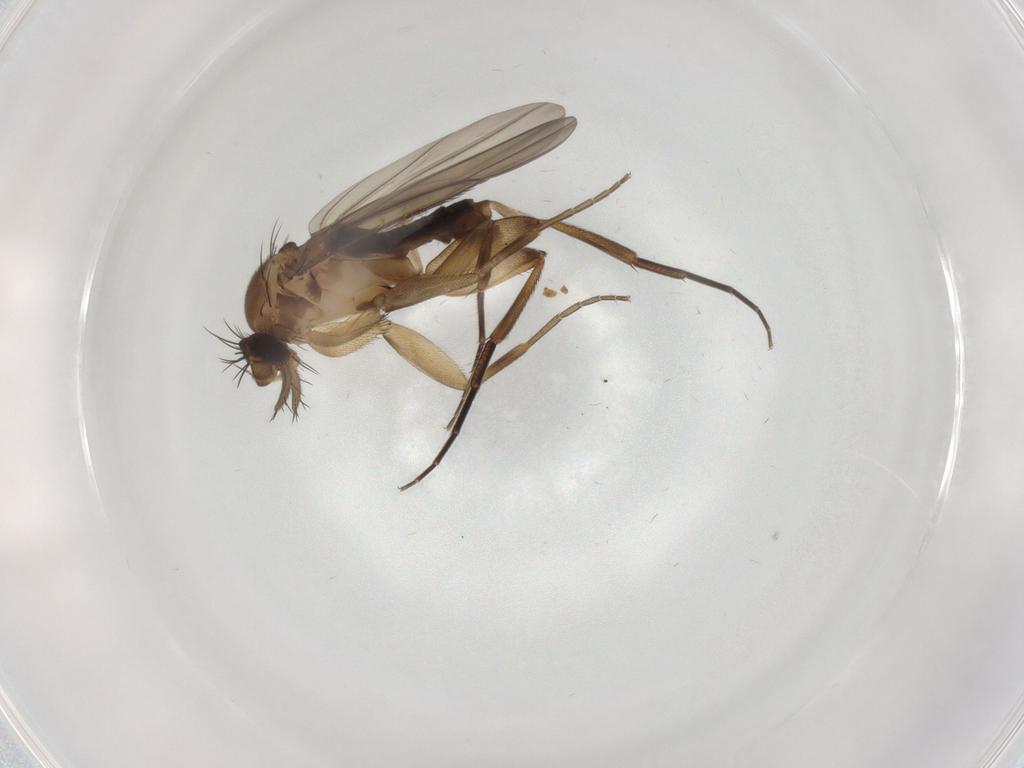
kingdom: Animalia
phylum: Arthropoda
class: Insecta
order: Diptera
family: Phoridae
